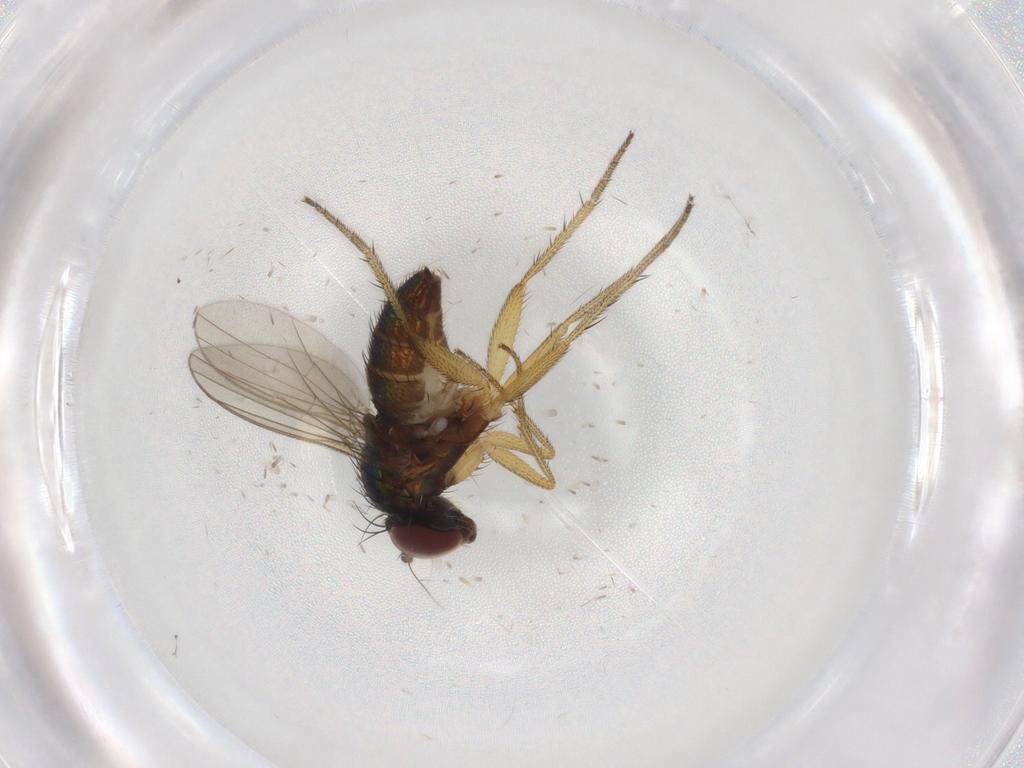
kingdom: Animalia
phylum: Arthropoda
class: Insecta
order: Diptera
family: Dolichopodidae
